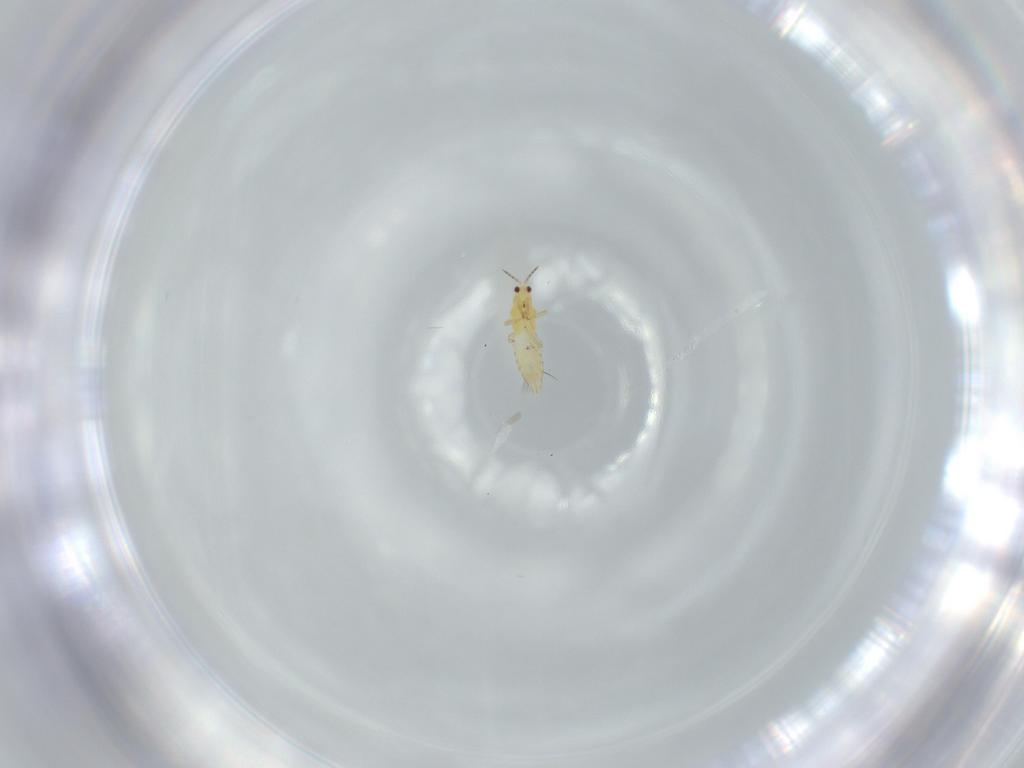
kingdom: Animalia
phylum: Arthropoda
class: Insecta
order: Thysanoptera
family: Thripidae
